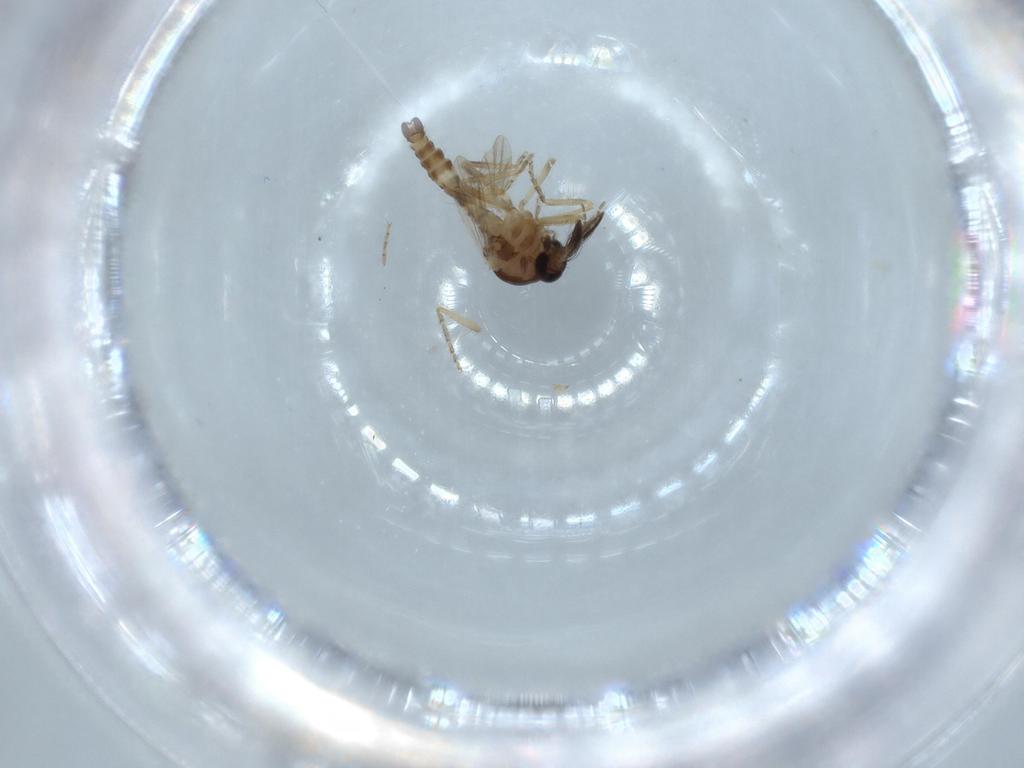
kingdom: Animalia
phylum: Arthropoda
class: Insecta
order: Diptera
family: Ceratopogonidae
